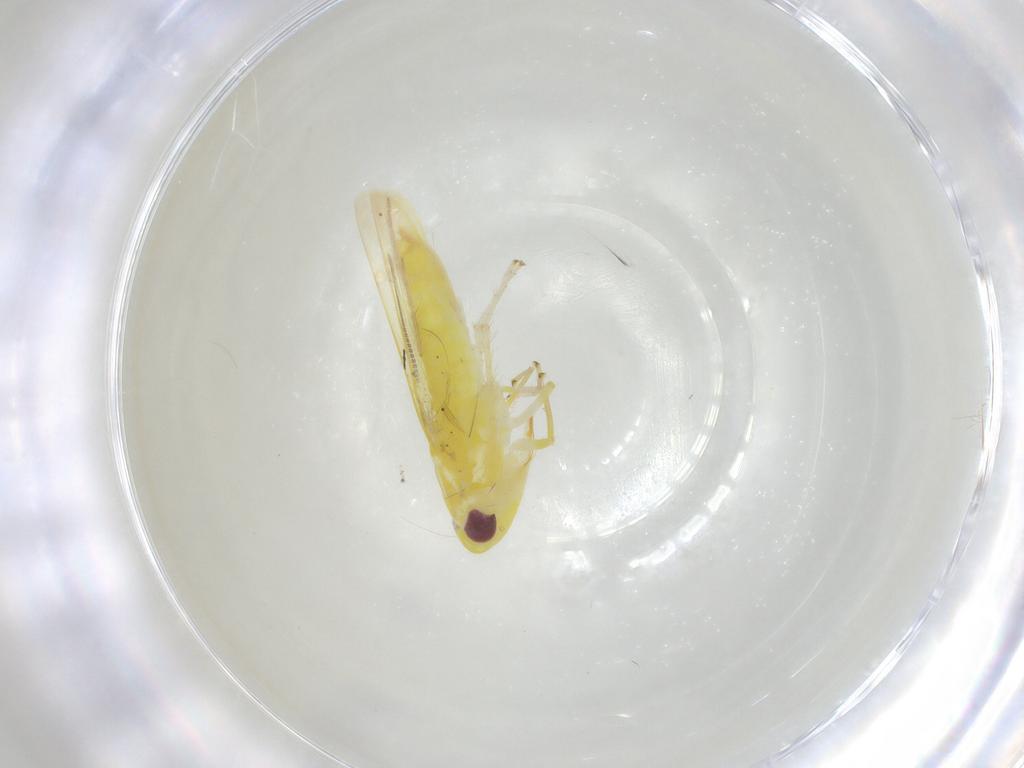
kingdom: Animalia
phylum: Arthropoda
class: Insecta
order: Hemiptera
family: Cicadellidae
